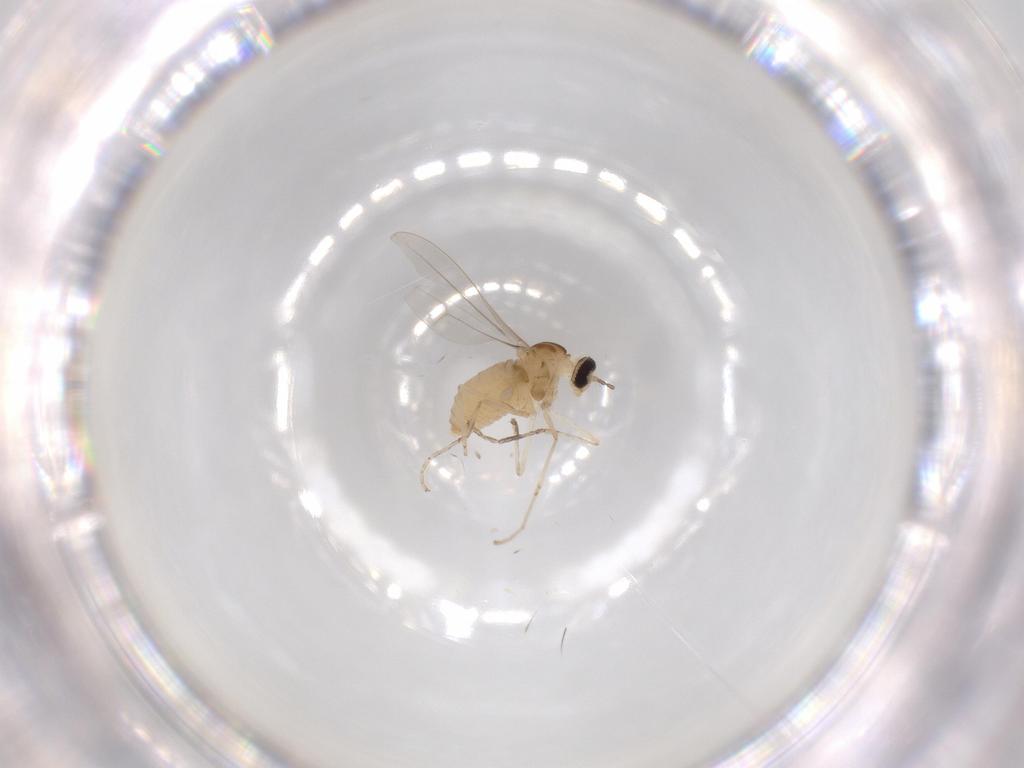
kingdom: Animalia
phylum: Arthropoda
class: Insecta
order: Diptera
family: Cecidomyiidae
